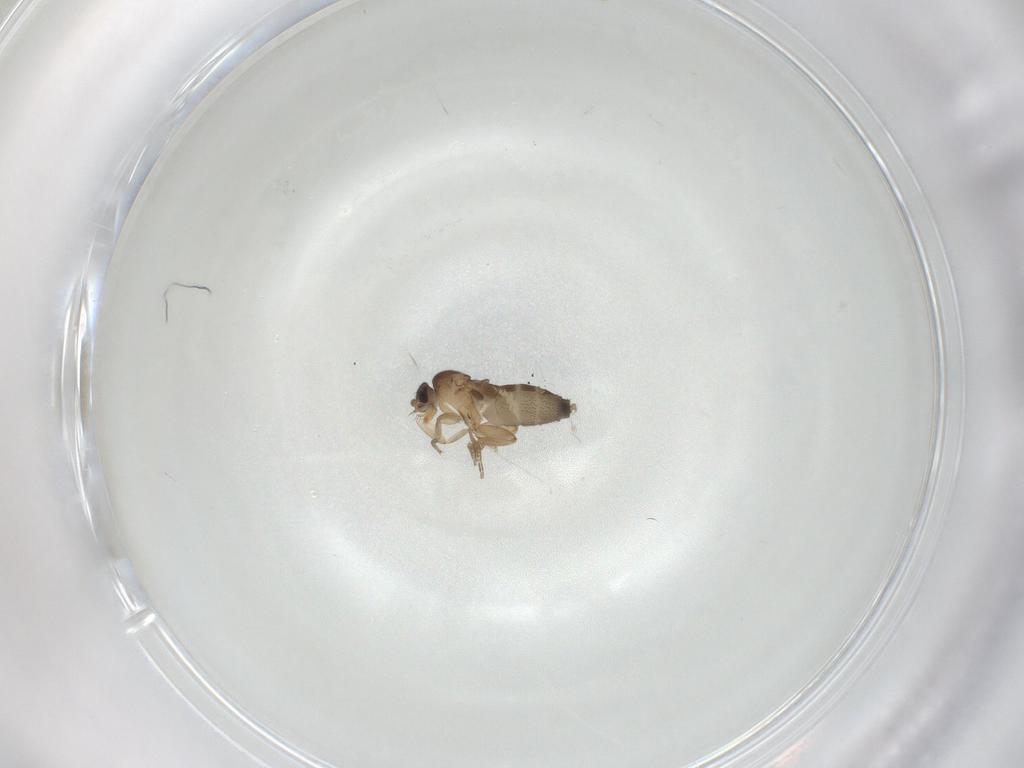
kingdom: Animalia
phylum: Arthropoda
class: Insecta
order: Diptera
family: Phoridae
